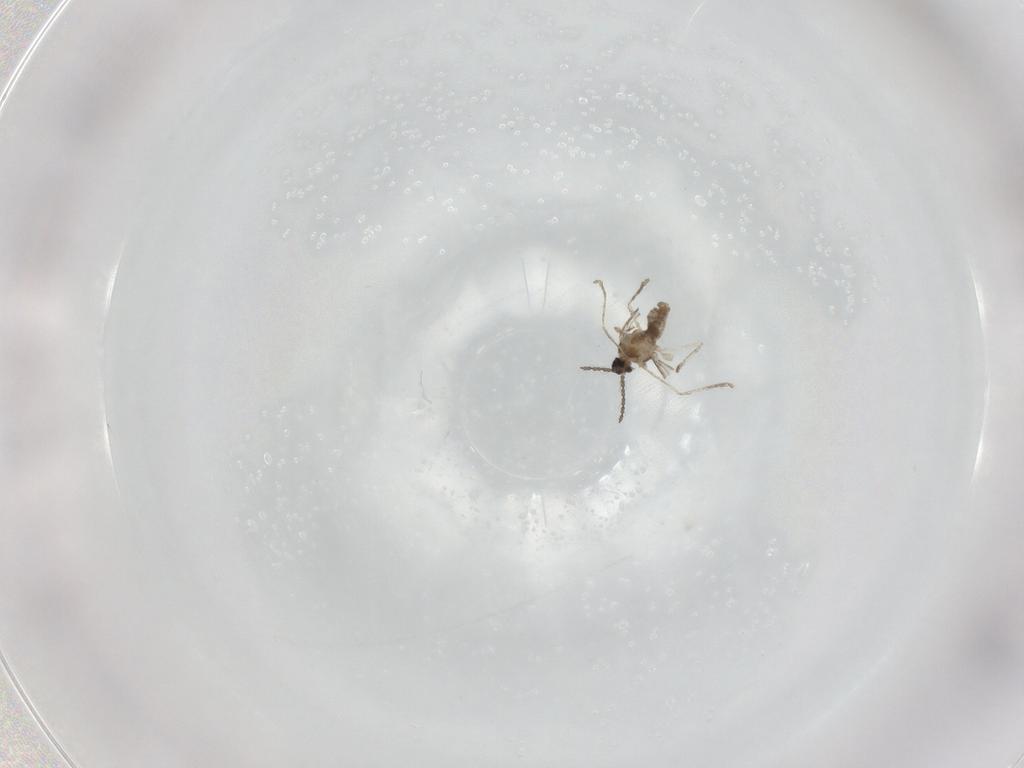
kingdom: Animalia
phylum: Arthropoda
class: Insecta
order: Diptera
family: Cecidomyiidae
